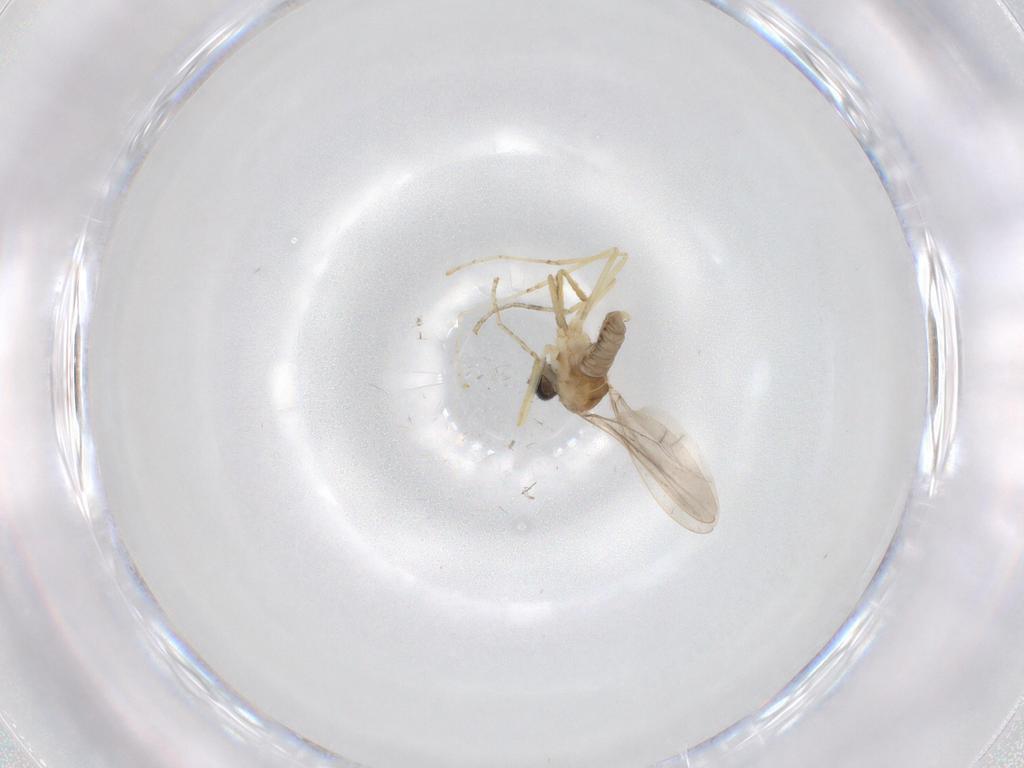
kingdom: Animalia
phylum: Arthropoda
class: Insecta
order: Diptera
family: Cecidomyiidae
